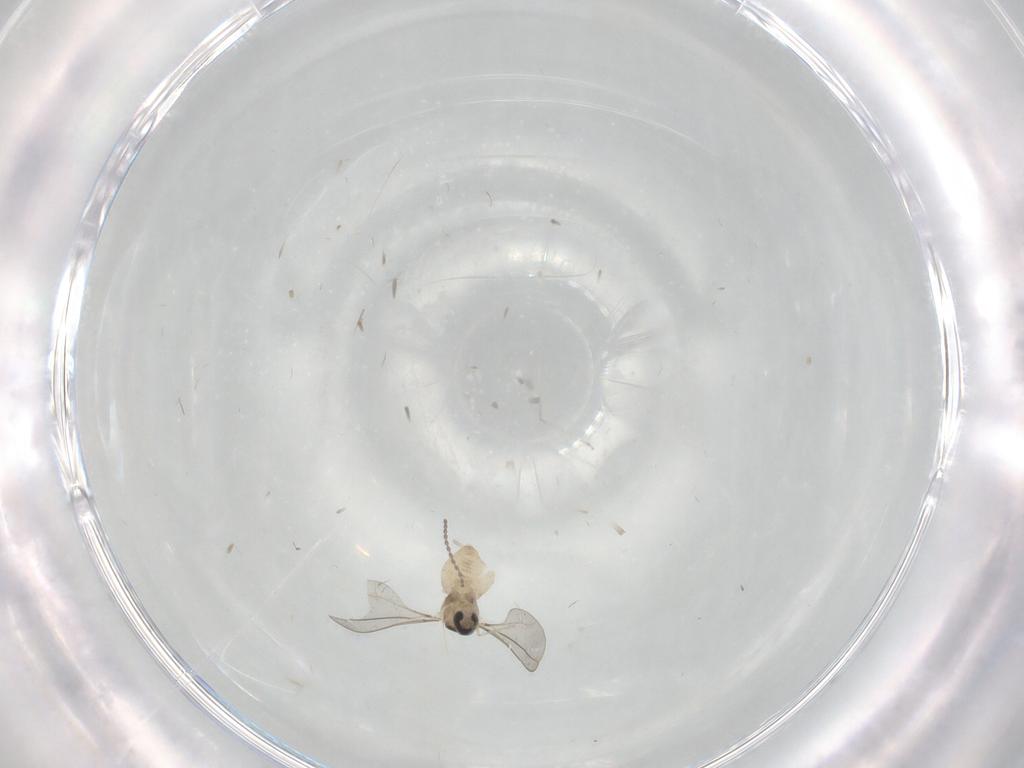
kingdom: Animalia
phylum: Arthropoda
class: Insecta
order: Diptera
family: Cecidomyiidae
